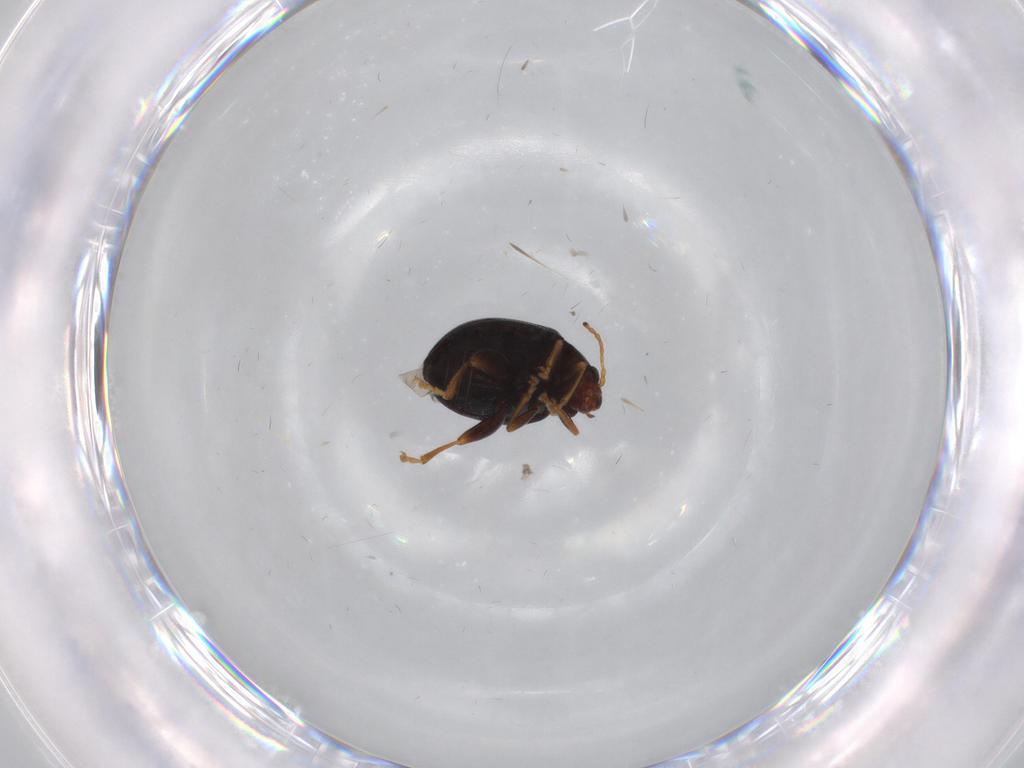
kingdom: Animalia
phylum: Arthropoda
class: Insecta
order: Coleoptera
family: Chrysomelidae
